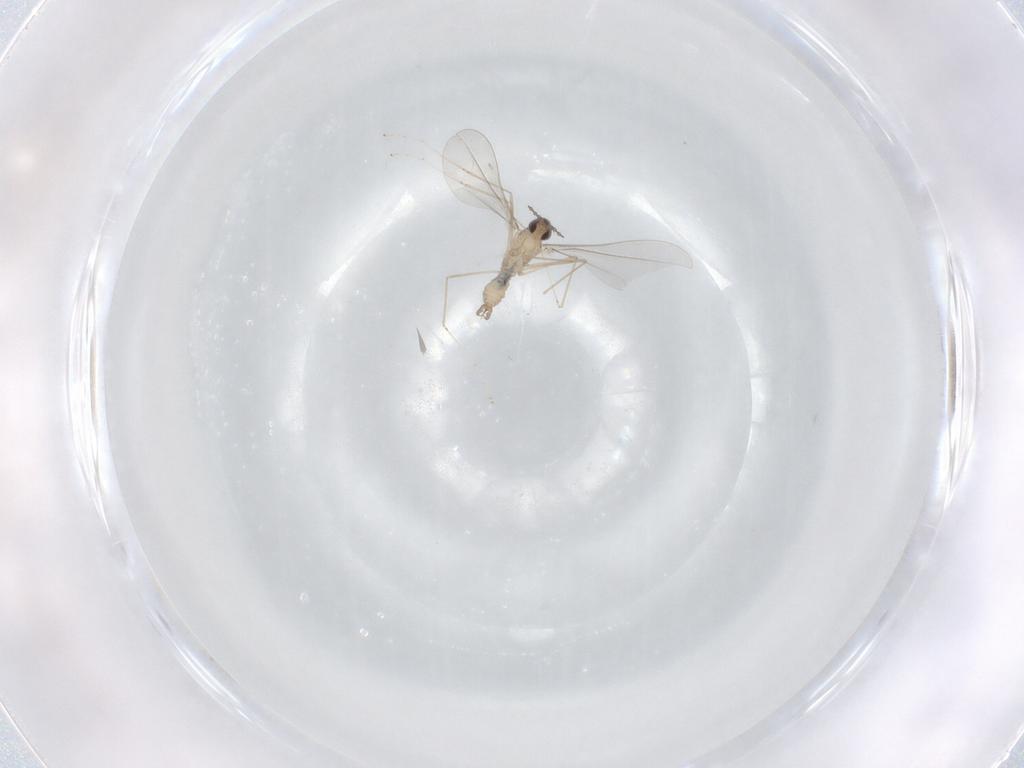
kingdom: Animalia
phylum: Arthropoda
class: Insecta
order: Diptera
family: Cecidomyiidae
